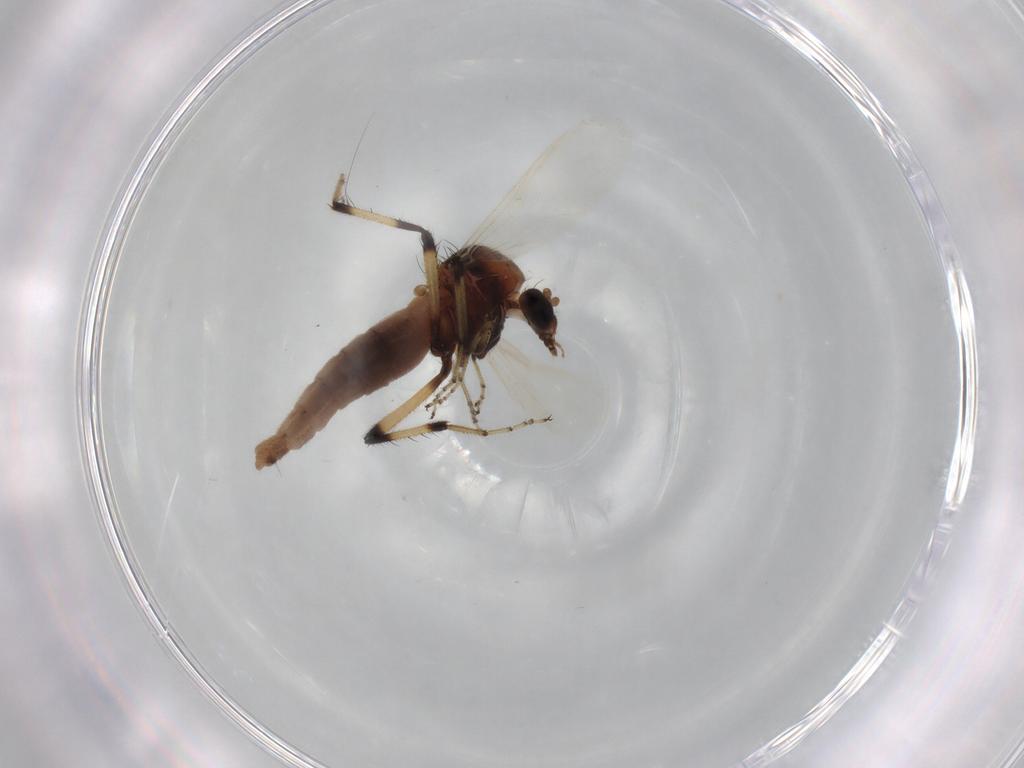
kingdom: Animalia
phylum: Arthropoda
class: Insecta
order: Diptera
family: Ceratopogonidae
